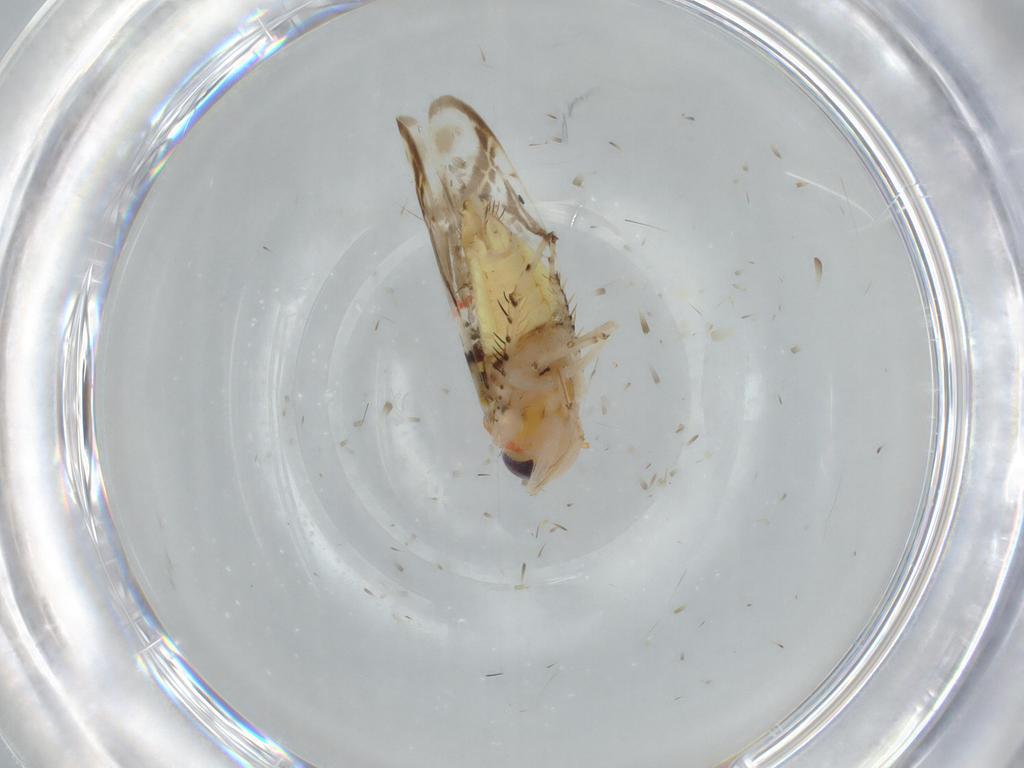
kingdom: Animalia
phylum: Arthropoda
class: Insecta
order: Hemiptera
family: Cicadellidae
